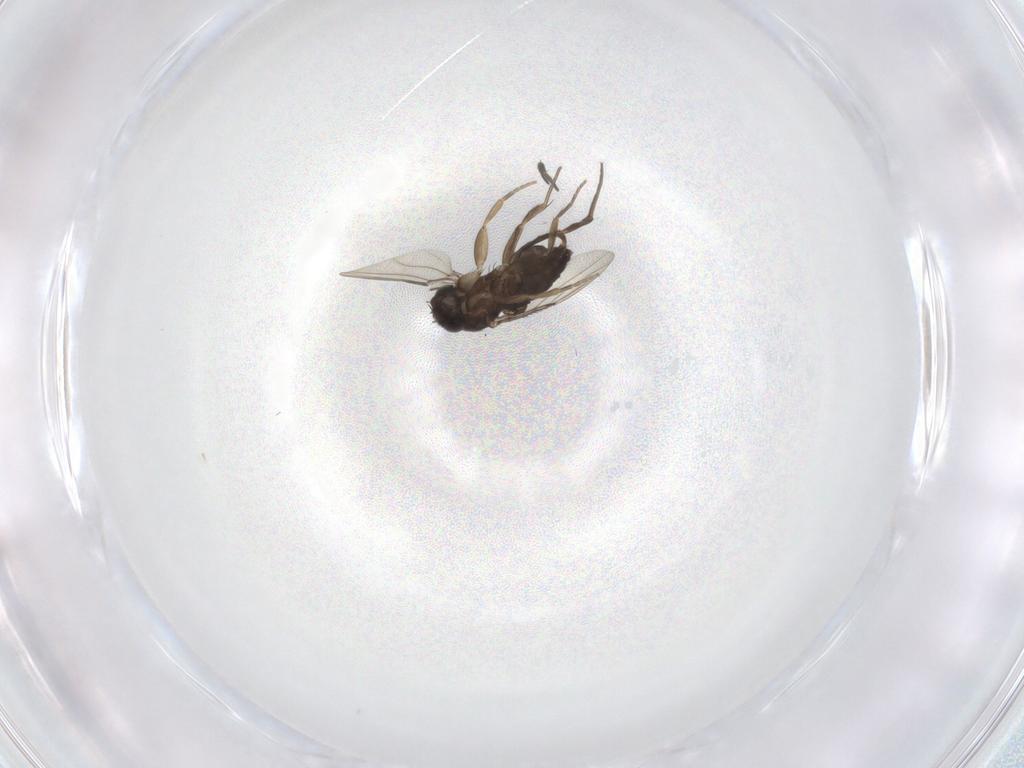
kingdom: Animalia
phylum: Arthropoda
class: Insecta
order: Diptera
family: Phoridae
